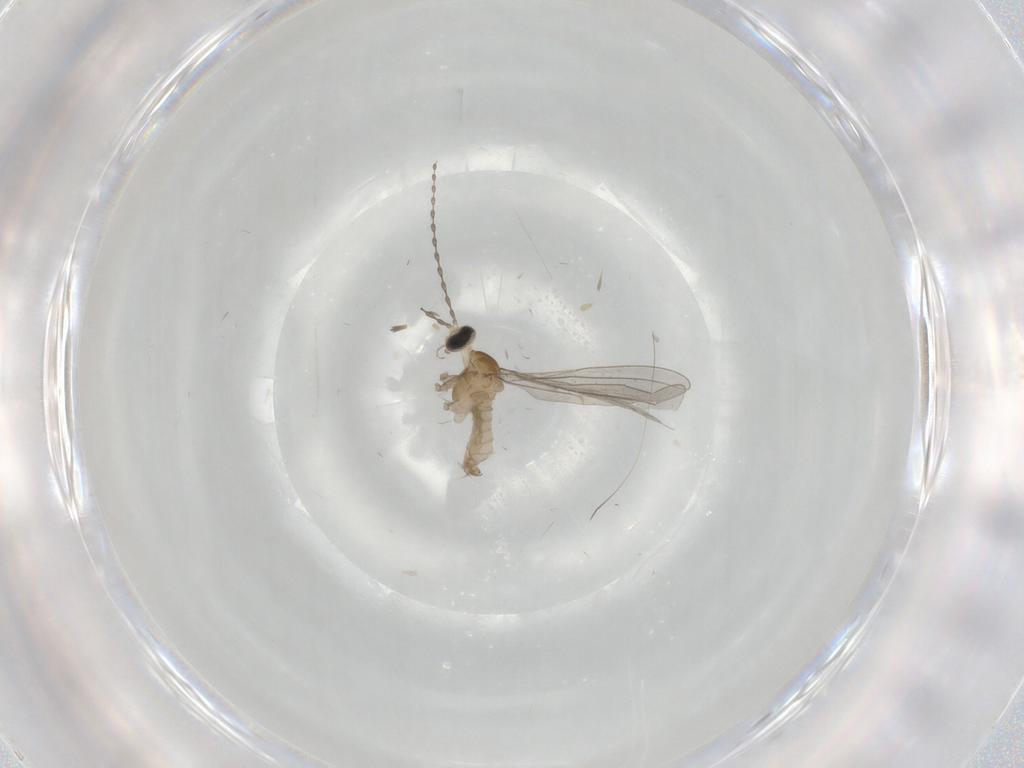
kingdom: Animalia
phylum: Arthropoda
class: Insecta
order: Diptera
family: Cecidomyiidae
